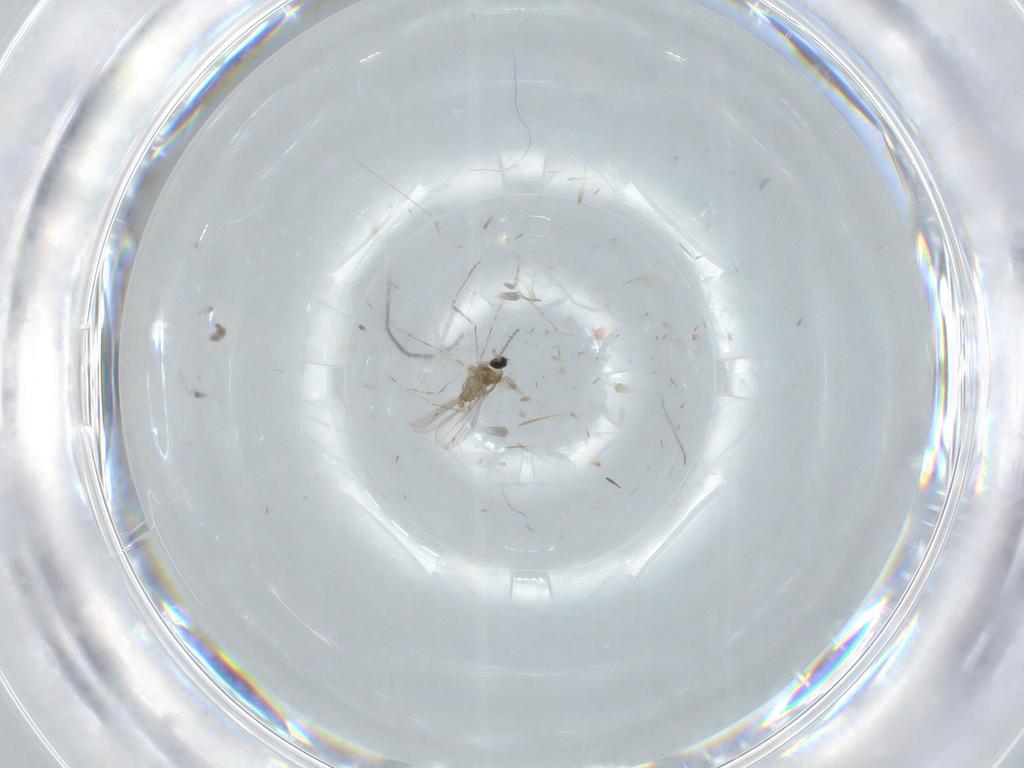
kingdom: Animalia
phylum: Arthropoda
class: Insecta
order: Diptera
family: Cecidomyiidae
